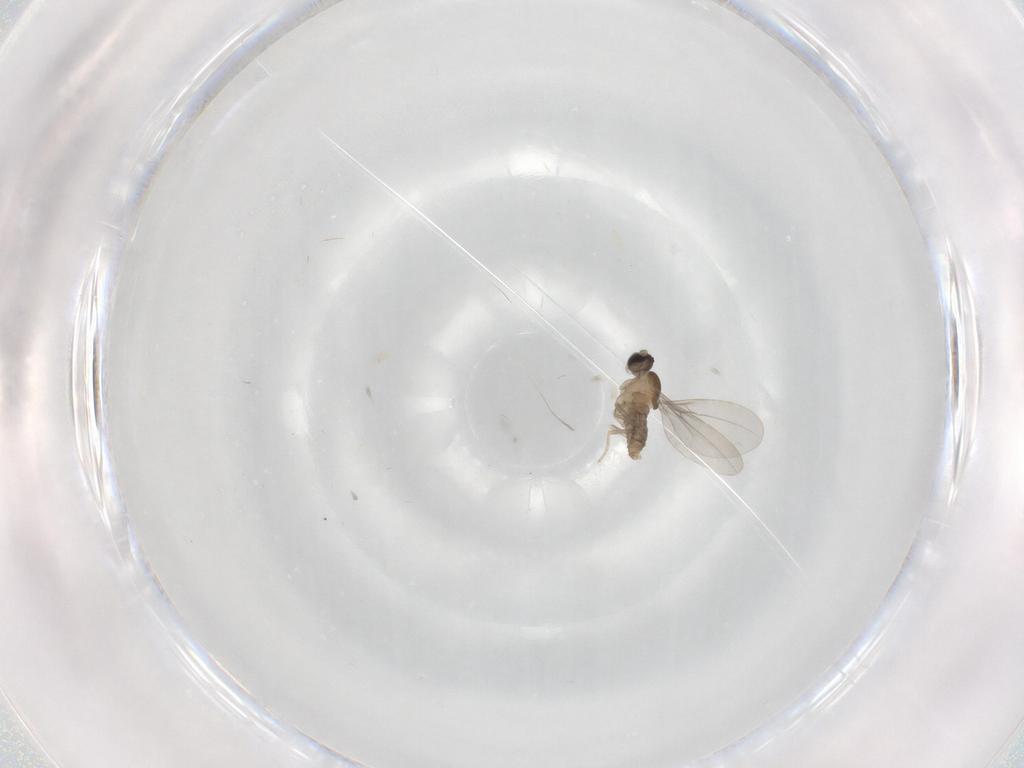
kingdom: Animalia
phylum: Arthropoda
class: Insecta
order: Diptera
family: Cecidomyiidae
